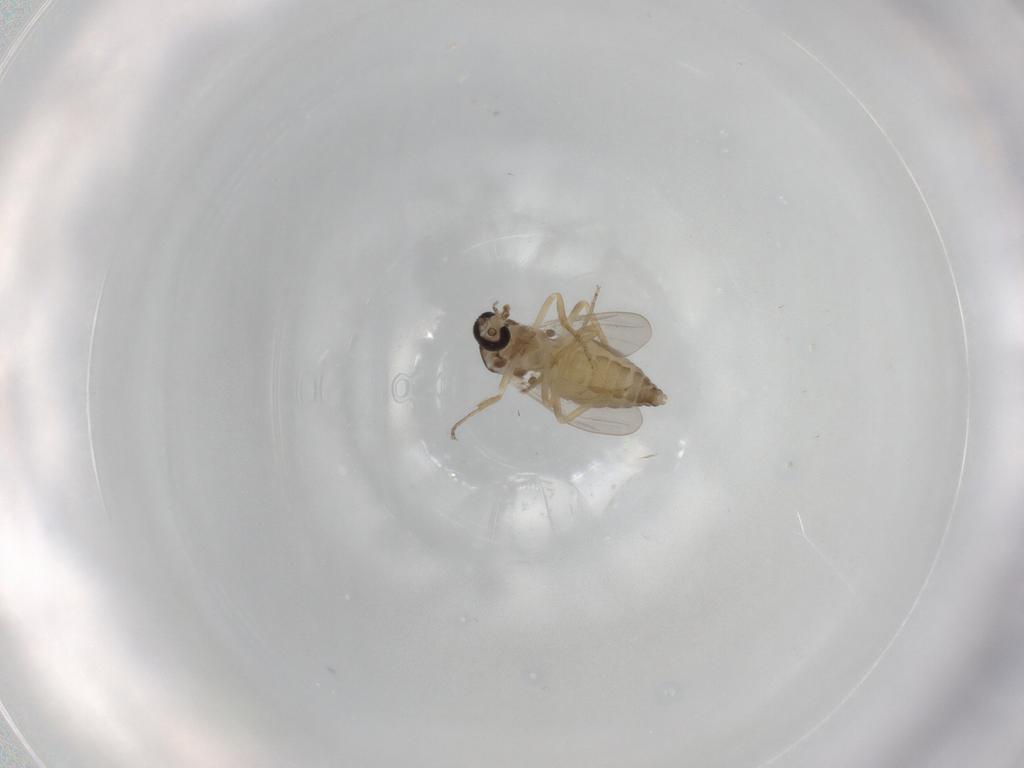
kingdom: Animalia
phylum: Arthropoda
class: Insecta
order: Diptera
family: Ceratopogonidae
